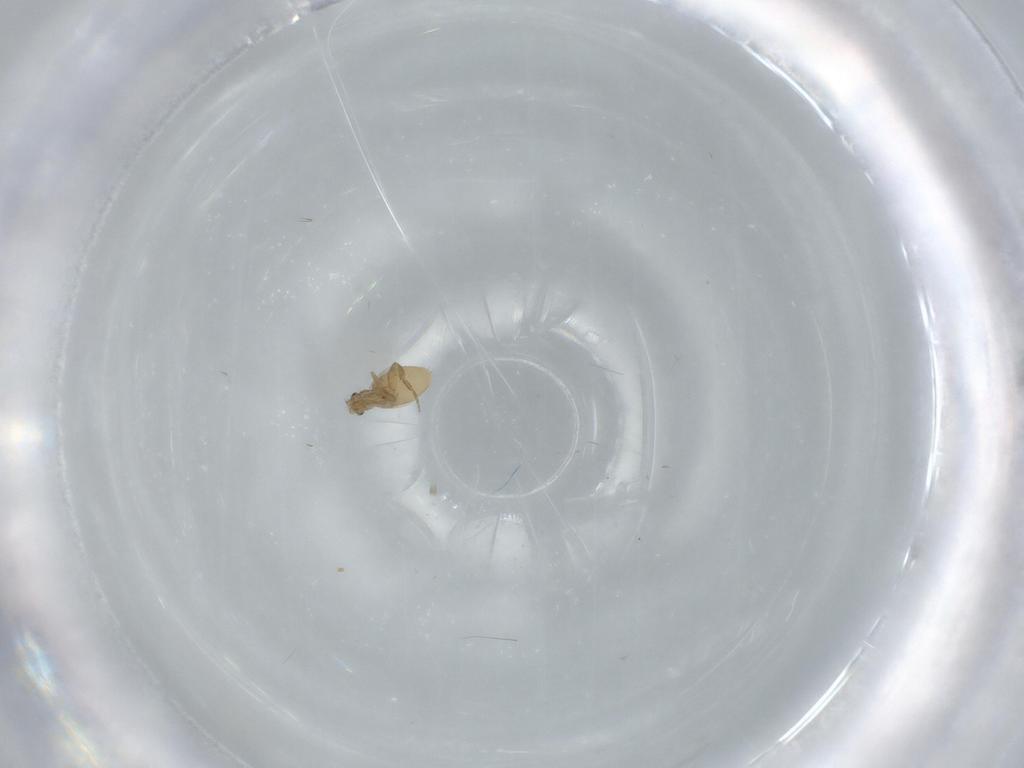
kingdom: Animalia
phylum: Arthropoda
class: Insecta
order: Diptera
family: Phoridae
